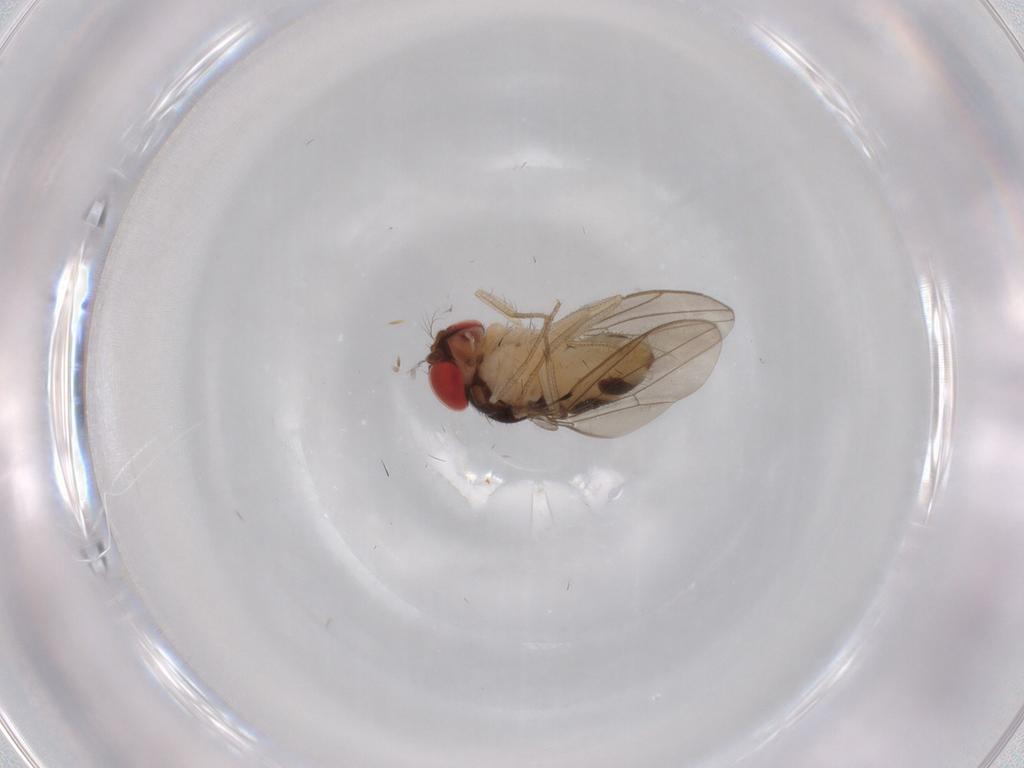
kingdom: Animalia
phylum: Arthropoda
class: Insecta
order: Diptera
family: Drosophilidae
